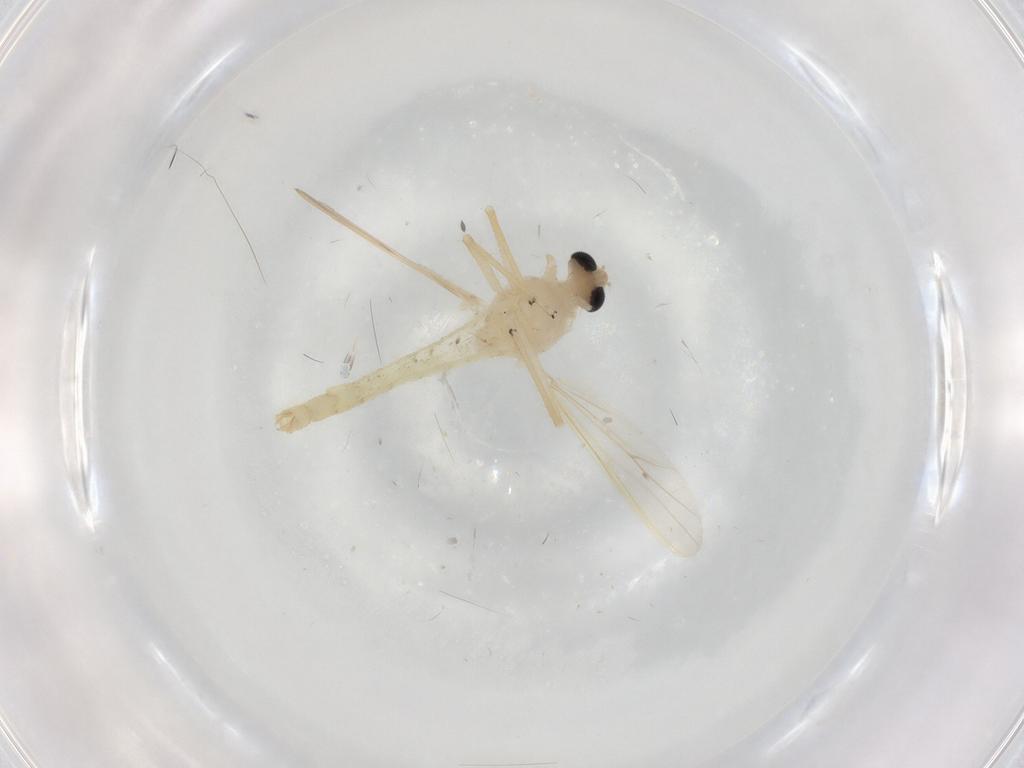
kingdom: Animalia
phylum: Arthropoda
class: Insecta
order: Diptera
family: Chironomidae
